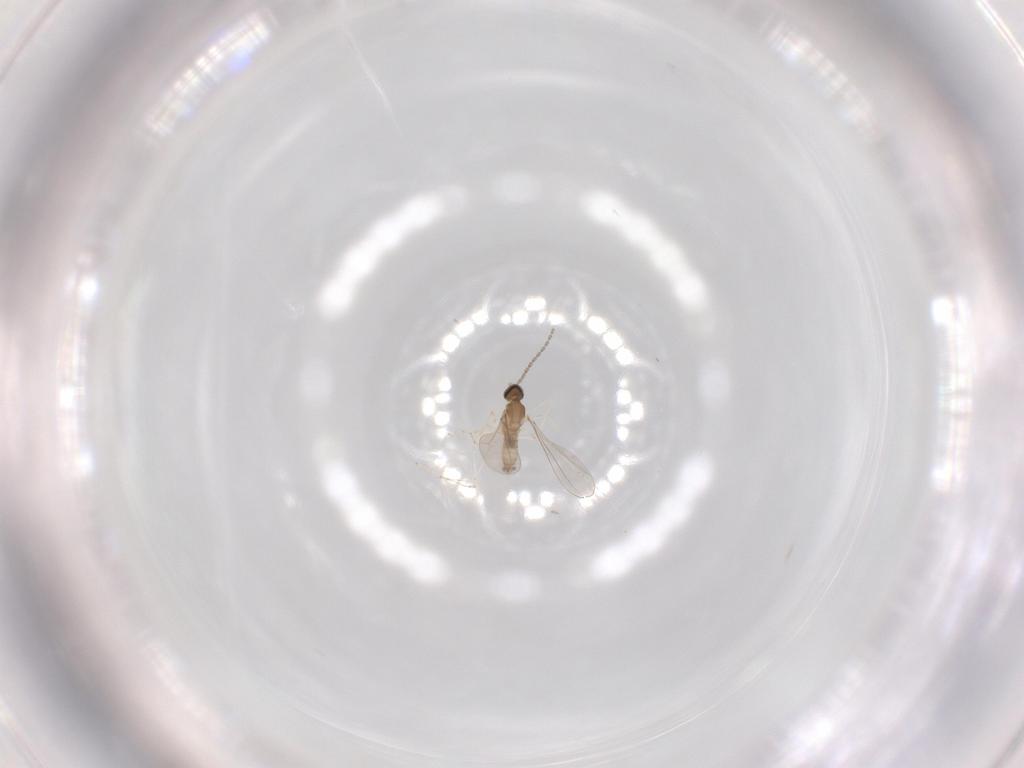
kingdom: Animalia
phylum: Arthropoda
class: Insecta
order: Diptera
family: Cecidomyiidae
